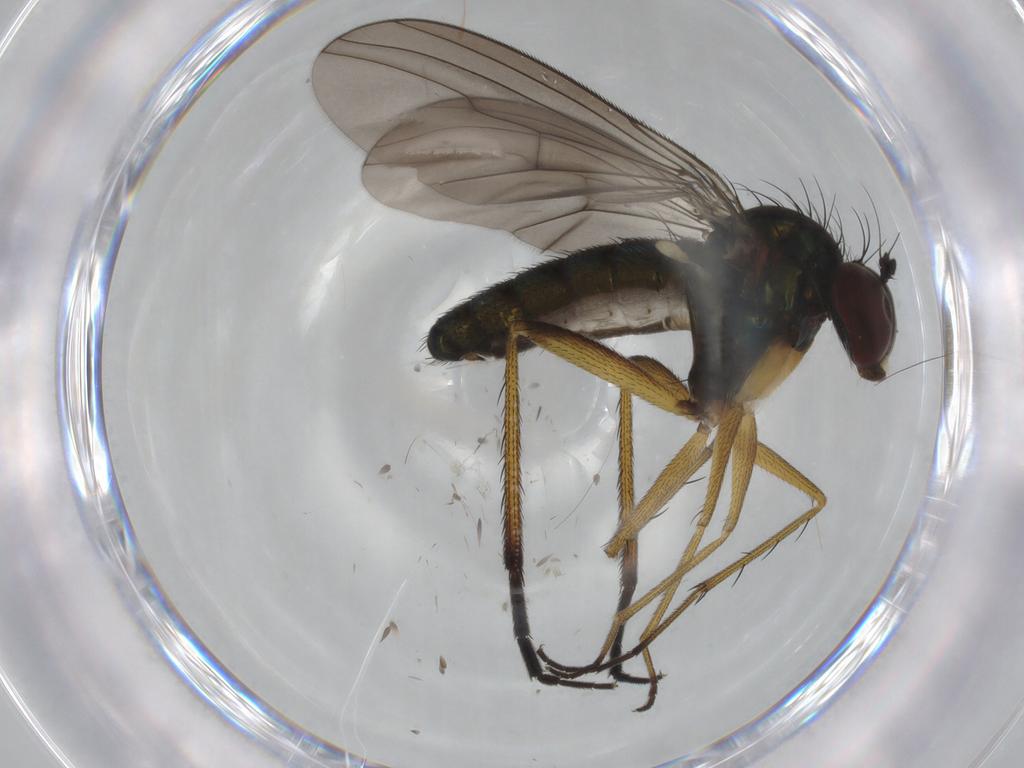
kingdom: Animalia
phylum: Arthropoda
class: Insecta
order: Diptera
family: Dolichopodidae
